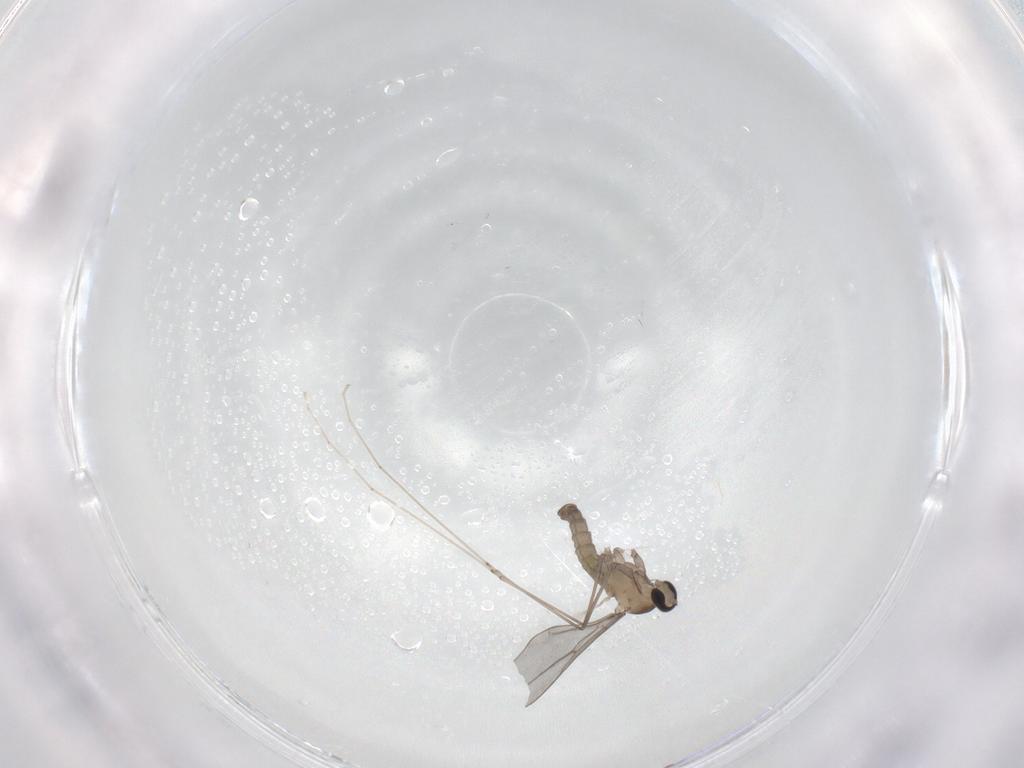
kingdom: Animalia
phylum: Arthropoda
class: Insecta
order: Diptera
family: Cecidomyiidae
